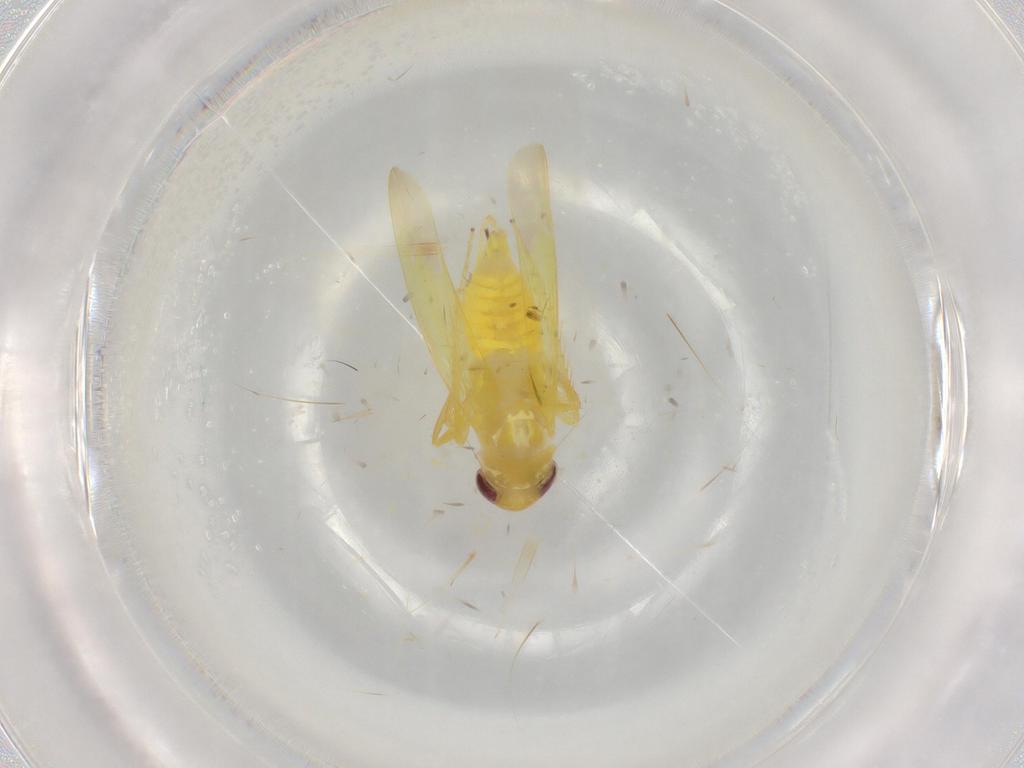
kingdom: Animalia
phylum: Arthropoda
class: Insecta
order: Hemiptera
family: Cicadellidae
